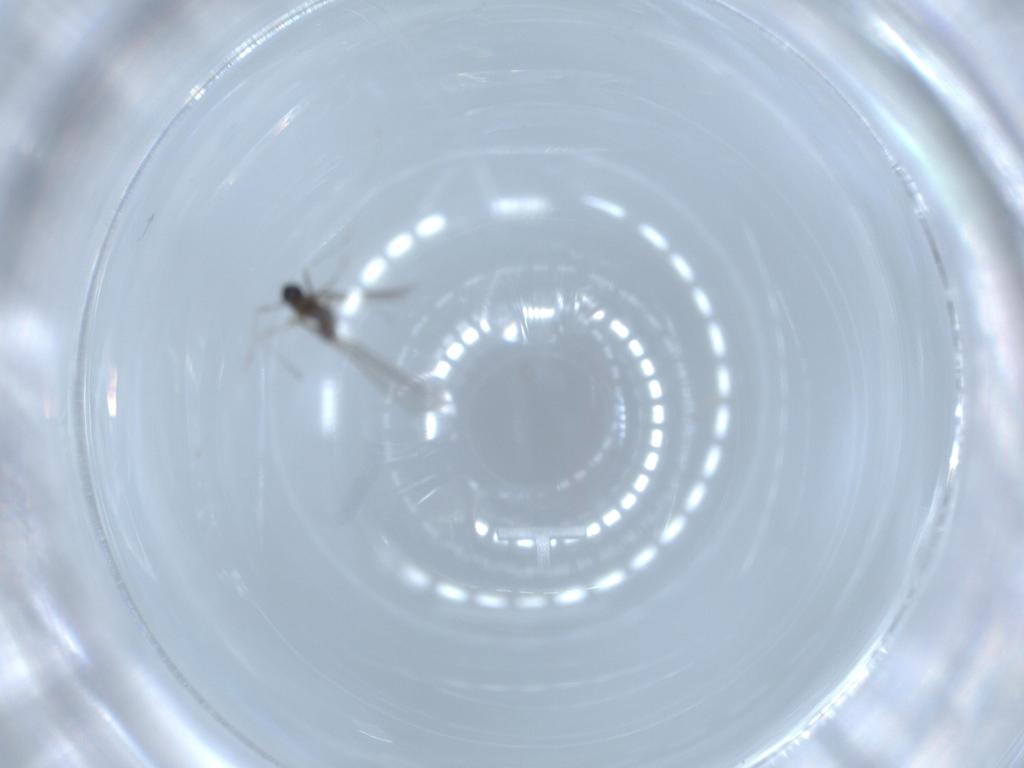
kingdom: Animalia
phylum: Arthropoda
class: Insecta
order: Diptera
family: Cecidomyiidae
